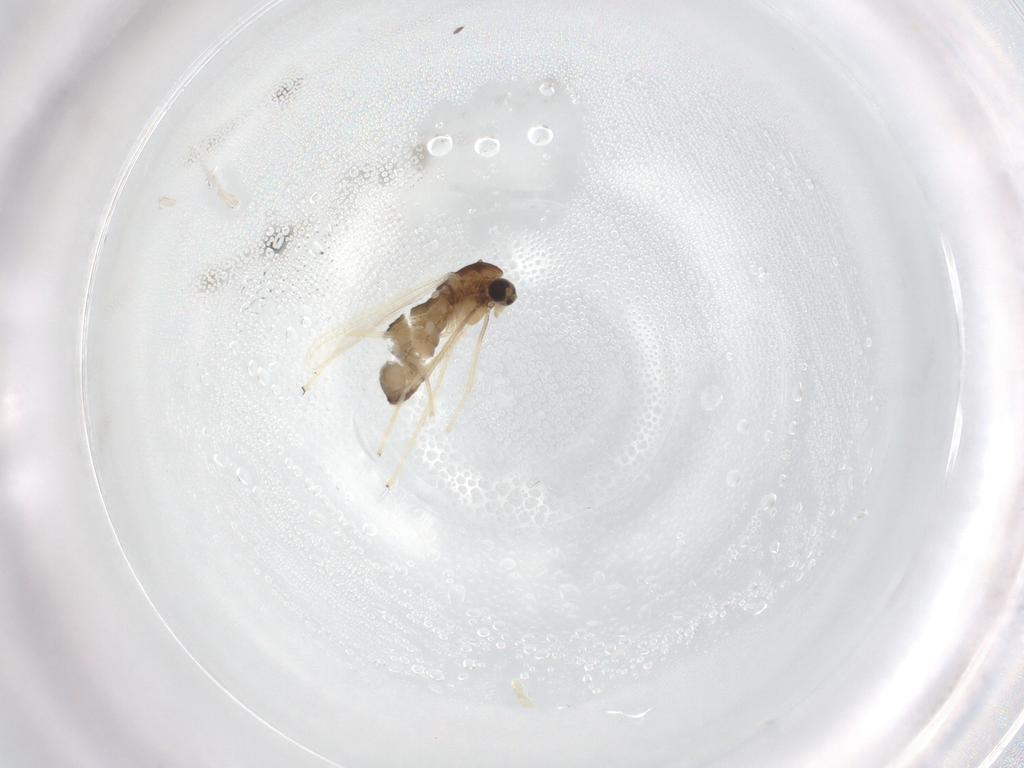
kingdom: Animalia
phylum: Arthropoda
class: Insecta
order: Diptera
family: Chironomidae
